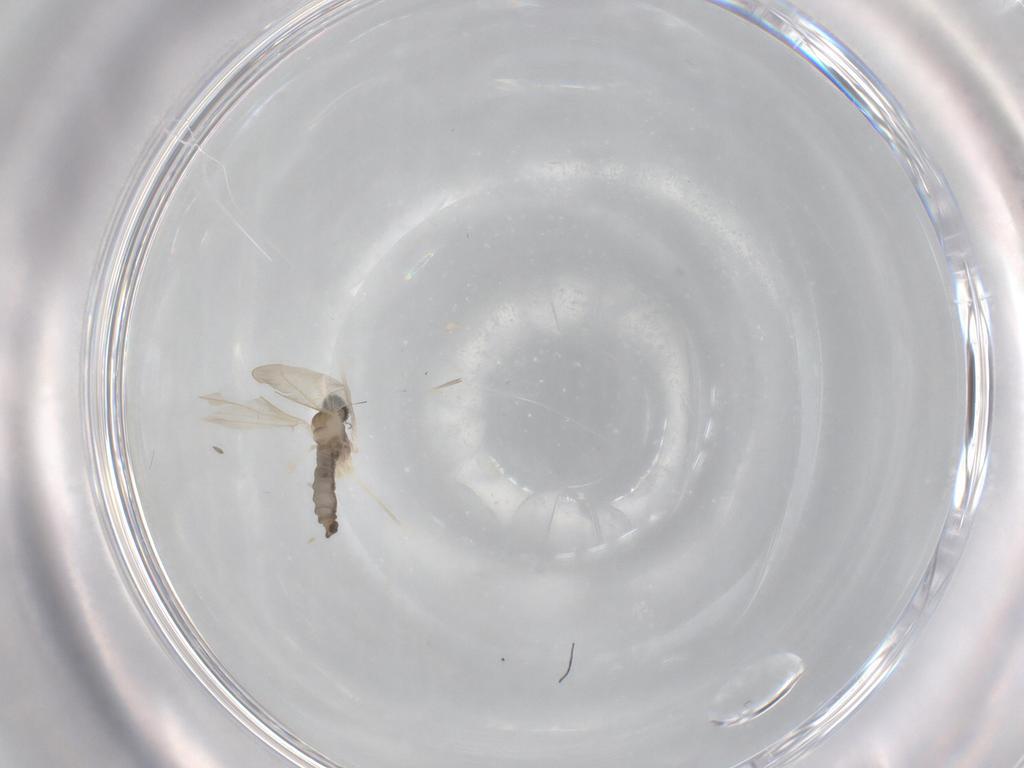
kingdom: Animalia
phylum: Arthropoda
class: Insecta
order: Diptera
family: Cecidomyiidae
